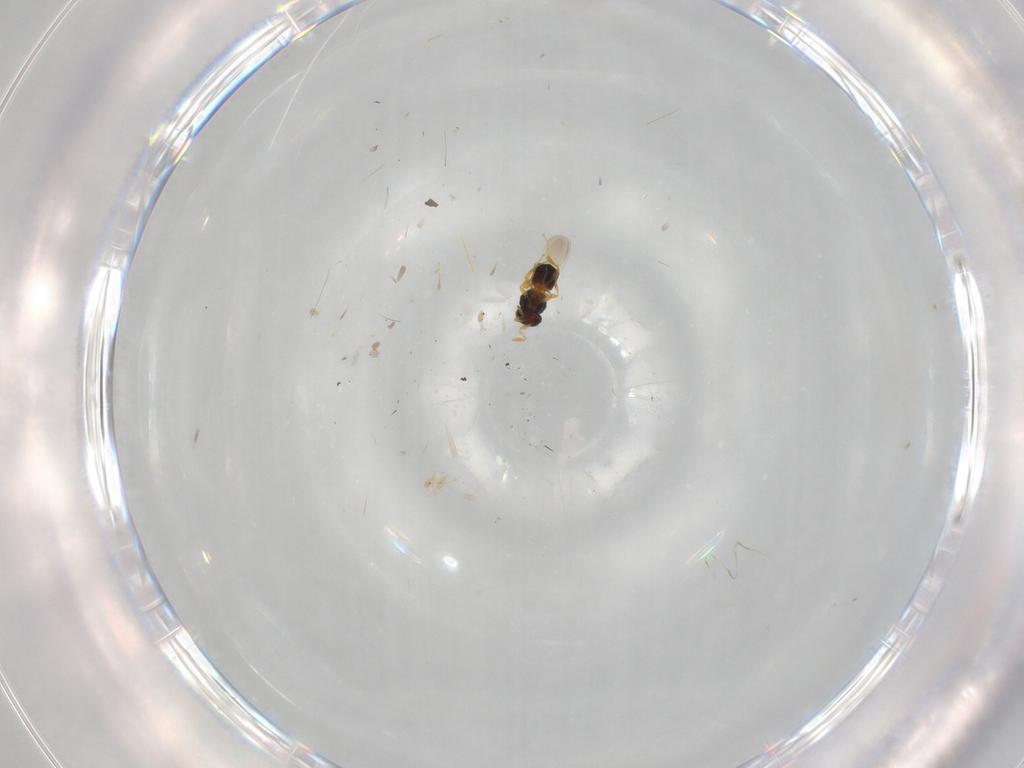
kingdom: Animalia
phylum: Arthropoda
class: Insecta
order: Hymenoptera
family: Platygastridae
